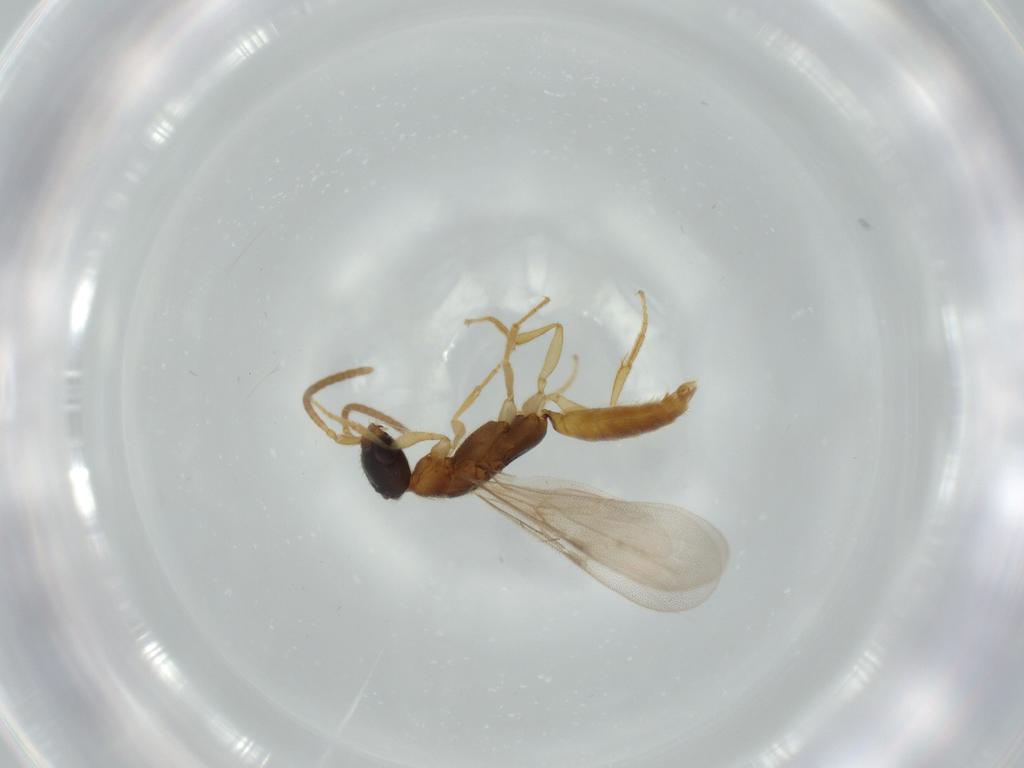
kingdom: Animalia
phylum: Arthropoda
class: Insecta
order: Hymenoptera
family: Bethylidae
